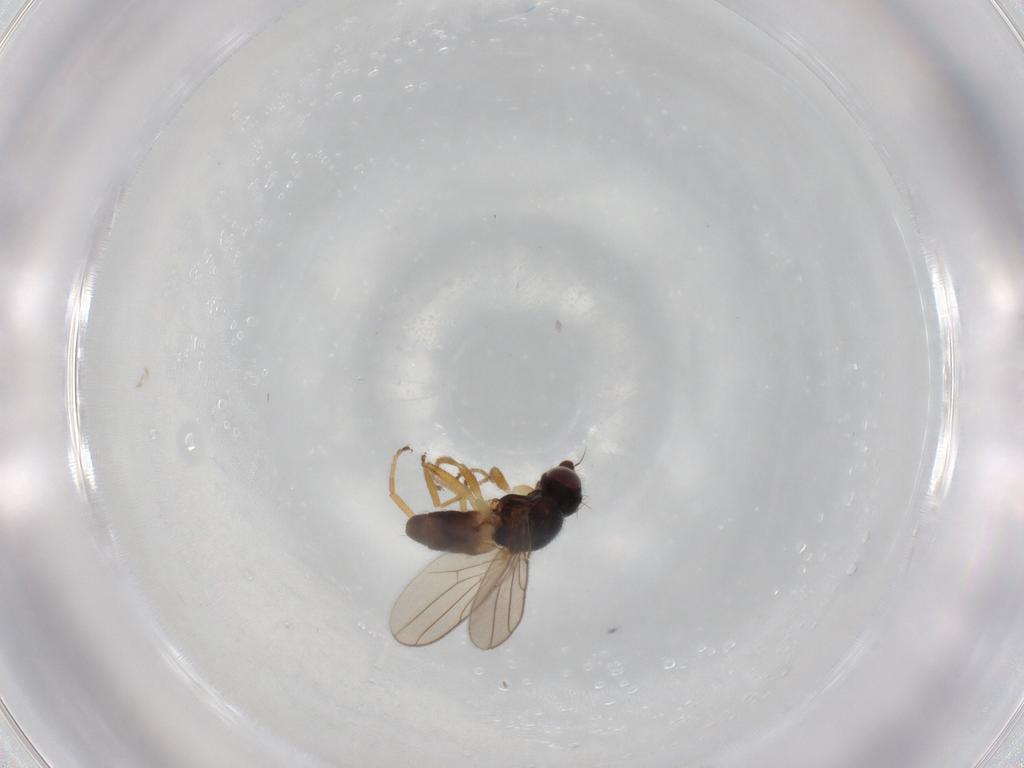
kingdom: Animalia
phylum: Arthropoda
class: Insecta
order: Diptera
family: Chloropidae
